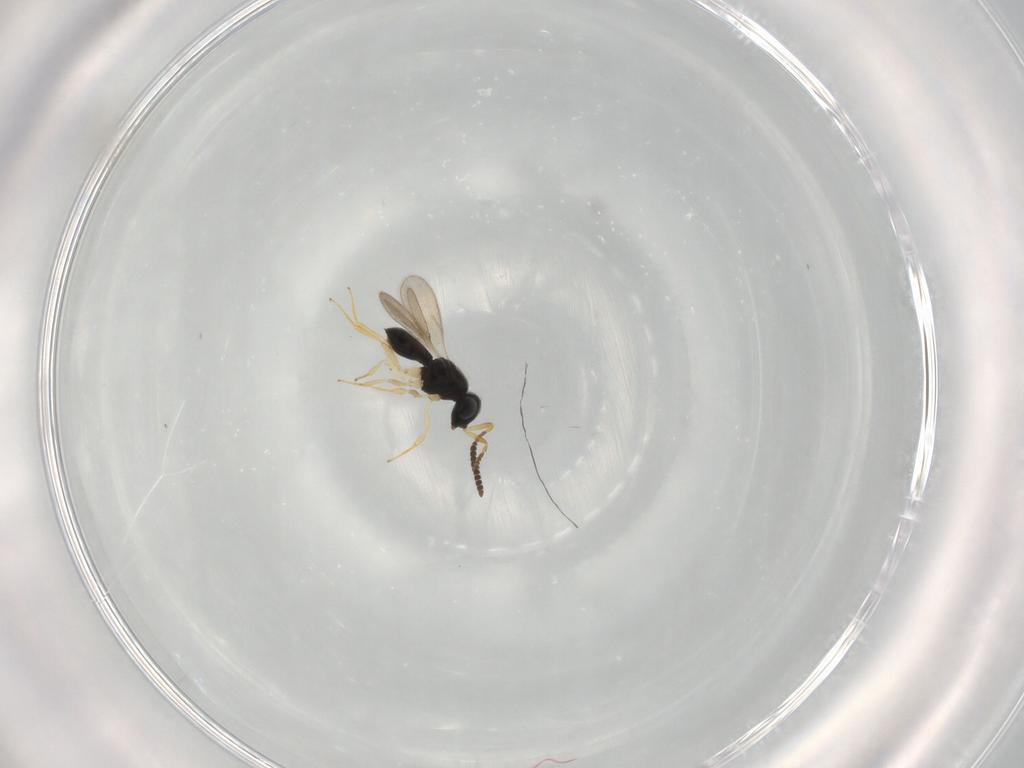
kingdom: Animalia
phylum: Arthropoda
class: Insecta
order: Hymenoptera
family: Scelionidae
